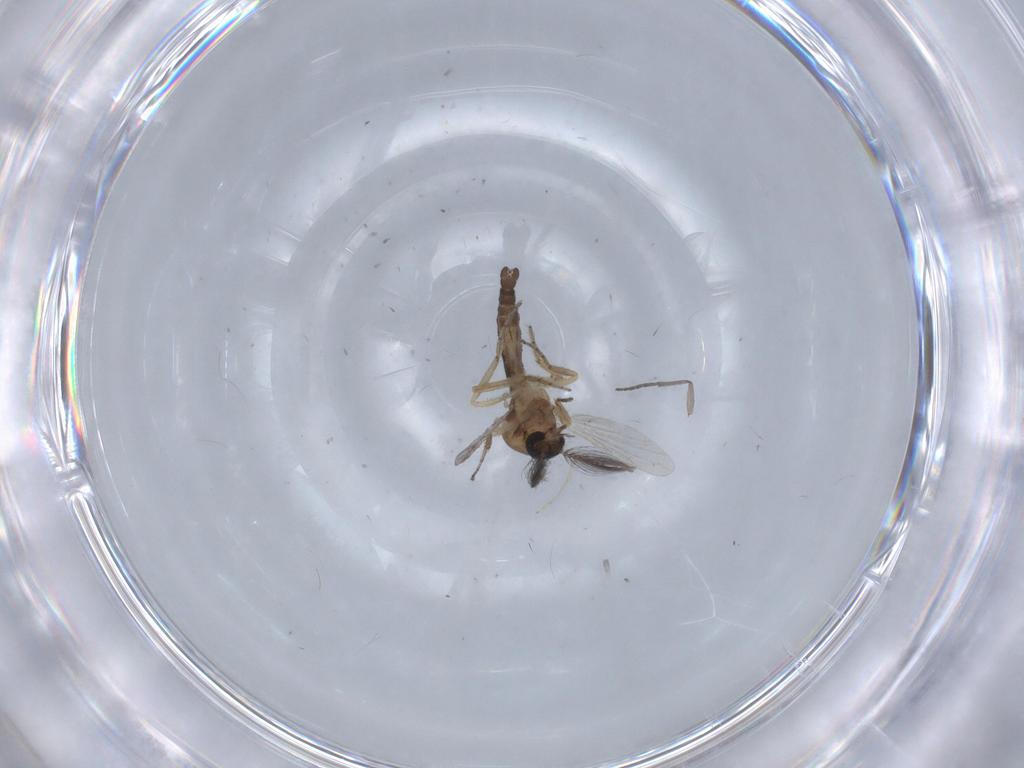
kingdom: Animalia
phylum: Arthropoda
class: Insecta
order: Diptera
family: Ceratopogonidae
